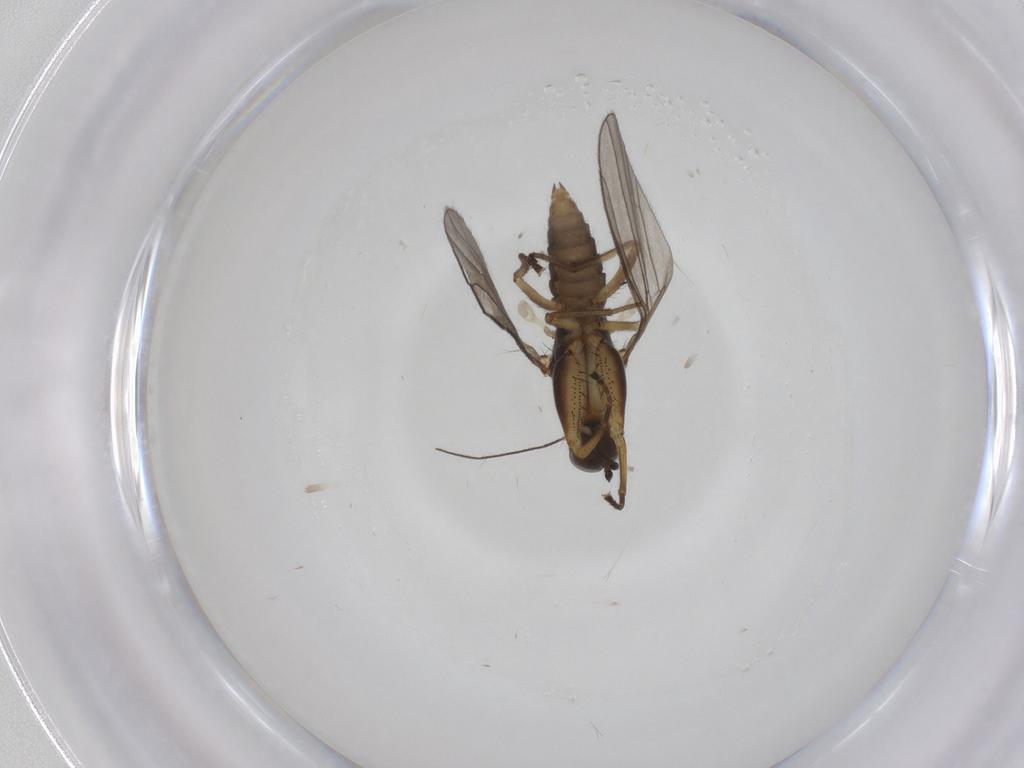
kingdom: Animalia
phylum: Arthropoda
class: Insecta
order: Diptera
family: Empididae
